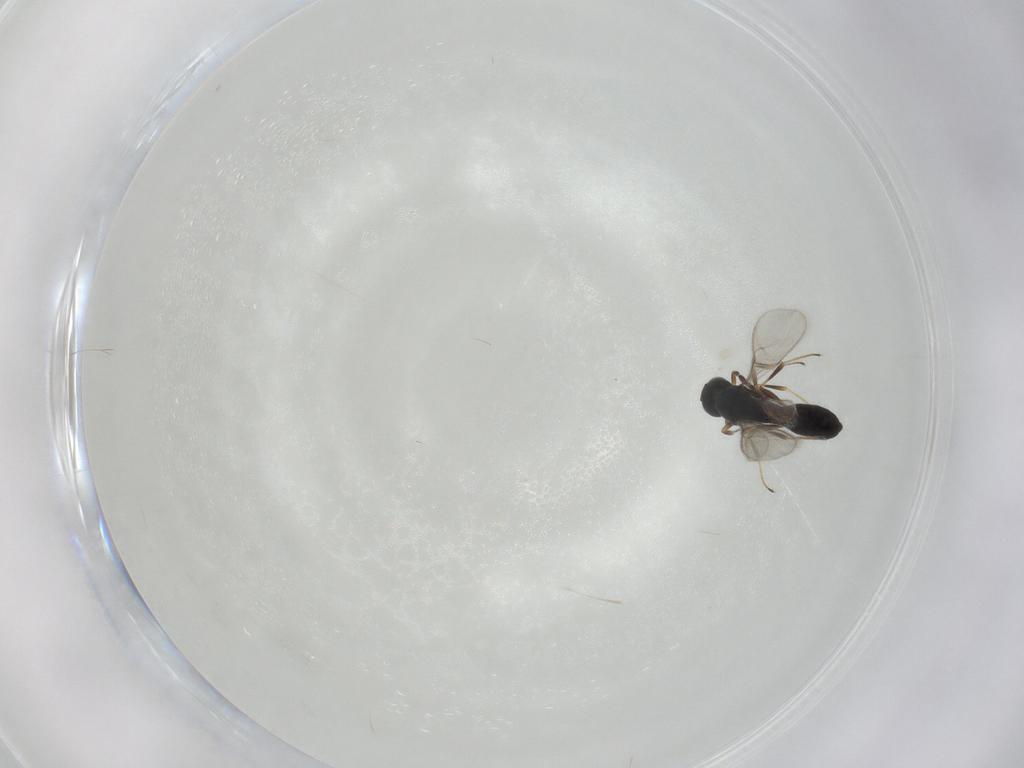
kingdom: Animalia
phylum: Arthropoda
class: Insecta
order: Hymenoptera
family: Scelionidae
